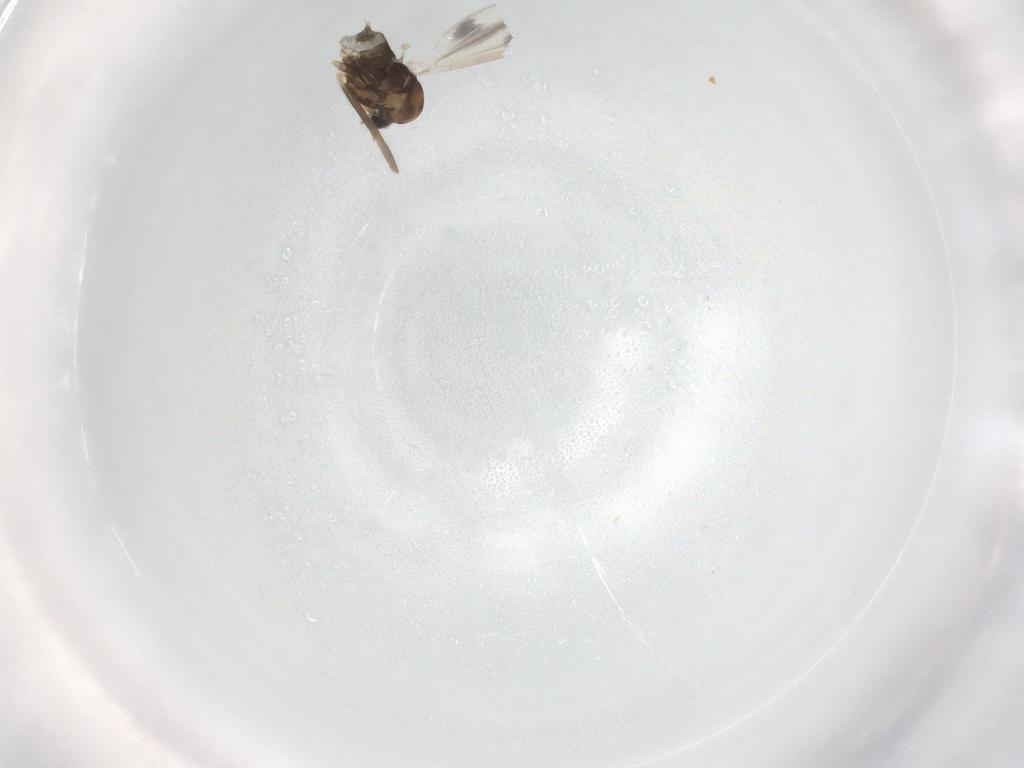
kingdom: Animalia
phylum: Arthropoda
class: Insecta
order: Diptera
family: Chironomidae
